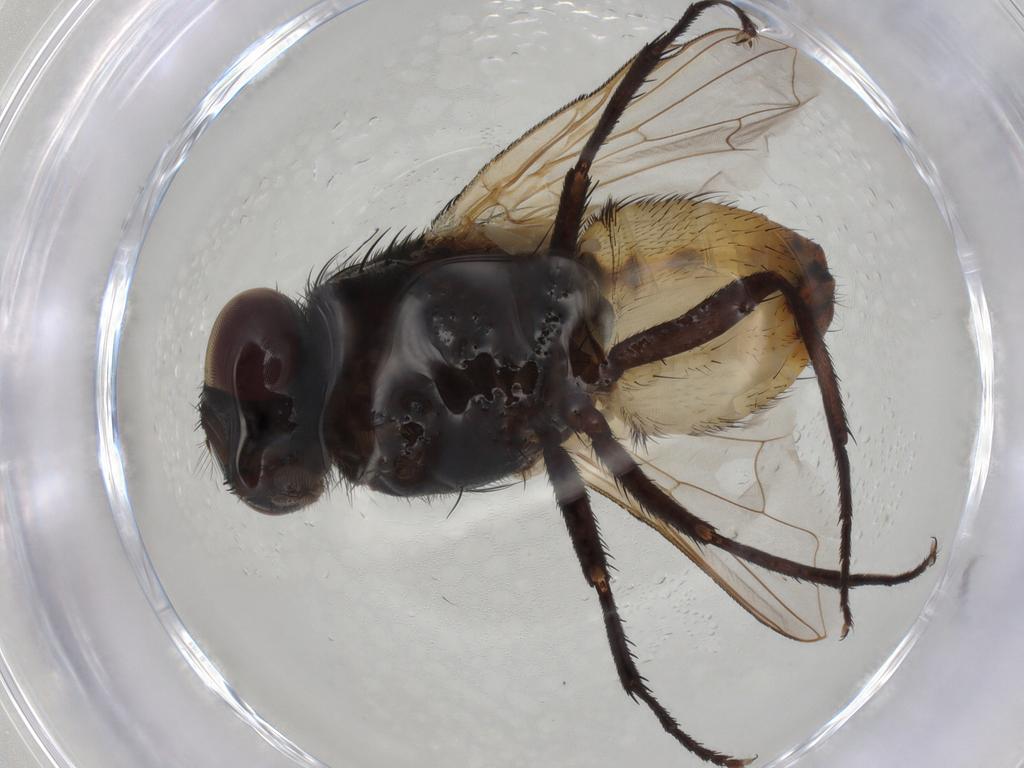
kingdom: Animalia
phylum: Arthropoda
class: Insecta
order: Diptera
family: Muscidae
